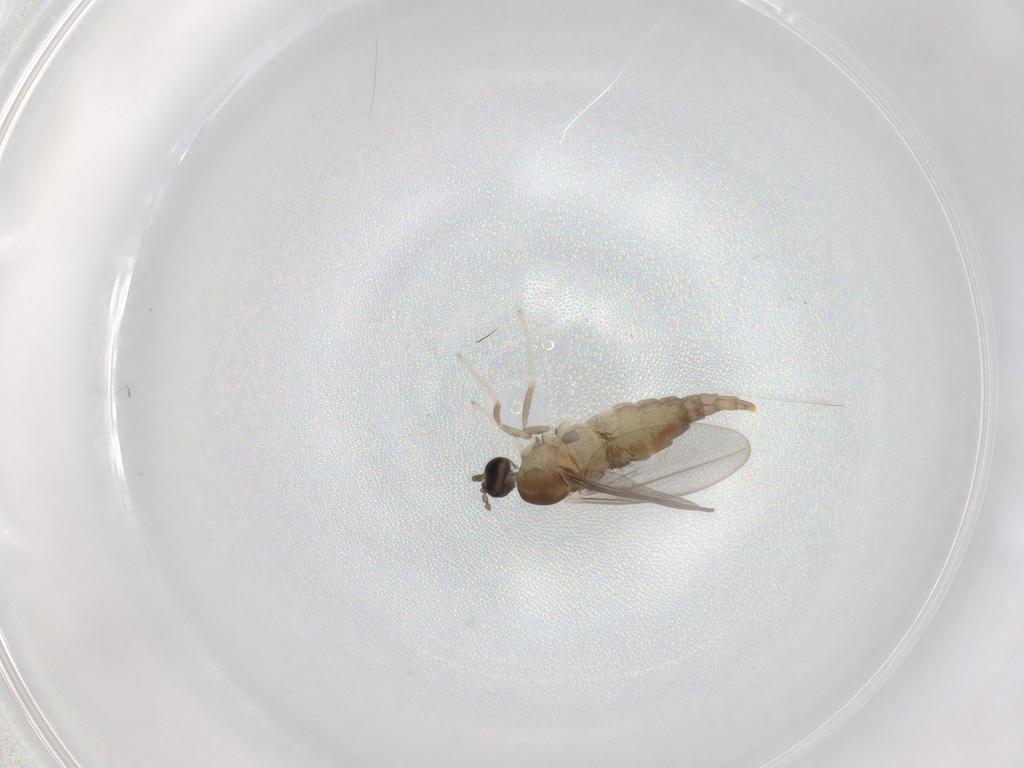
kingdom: Animalia
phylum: Arthropoda
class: Insecta
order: Diptera
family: Cecidomyiidae
